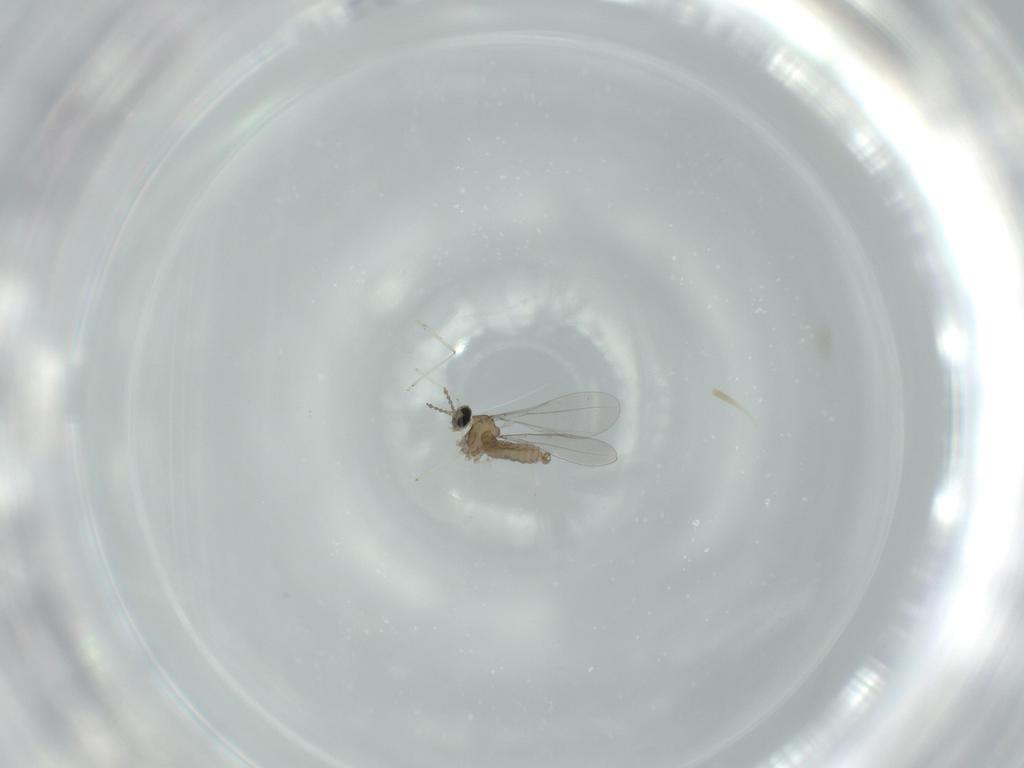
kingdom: Animalia
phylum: Arthropoda
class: Insecta
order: Diptera
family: Cecidomyiidae
